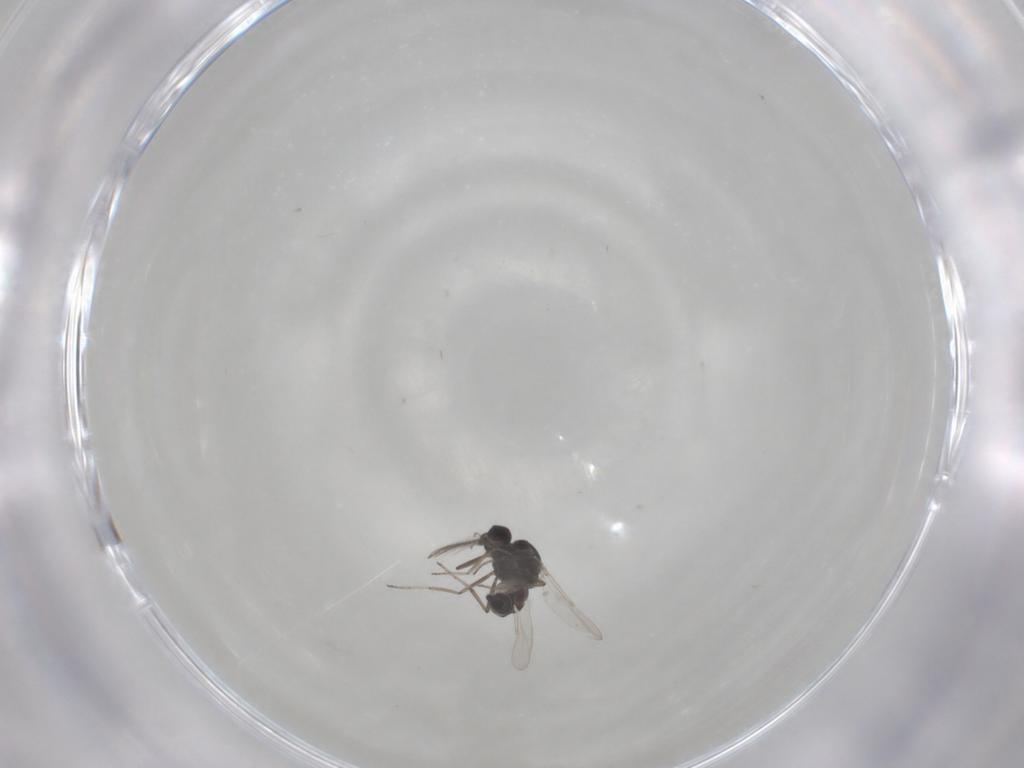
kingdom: Animalia
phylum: Arthropoda
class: Insecta
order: Diptera
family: Ceratopogonidae
